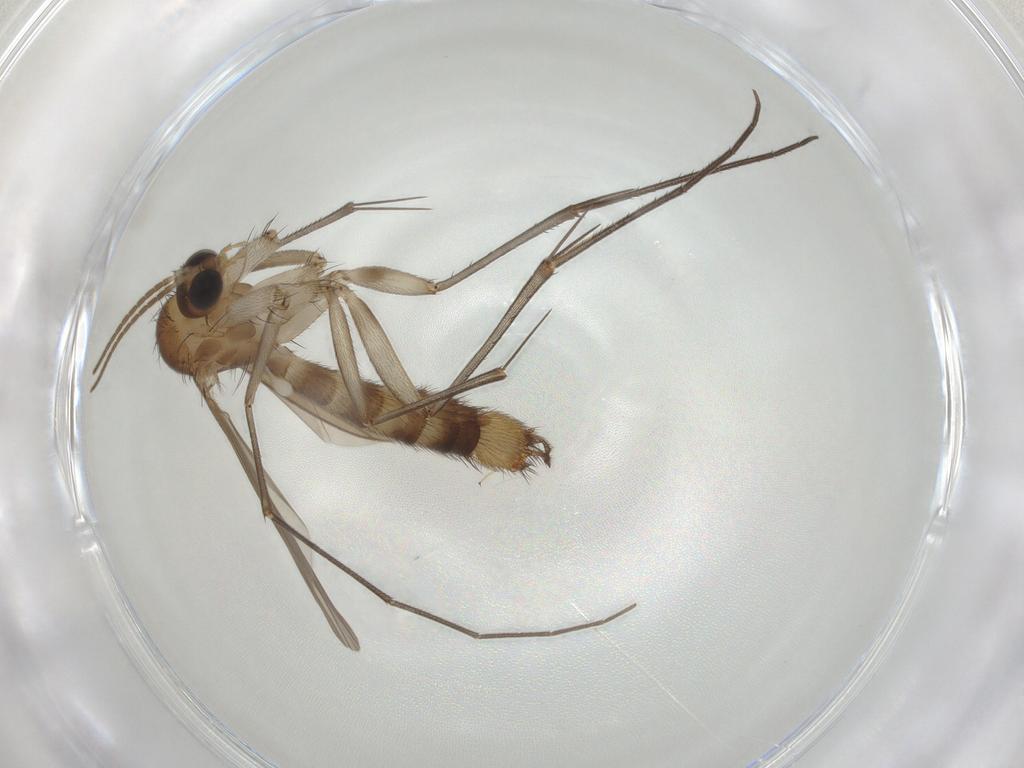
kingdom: Animalia
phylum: Arthropoda
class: Insecta
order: Diptera
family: Mycetophilidae
